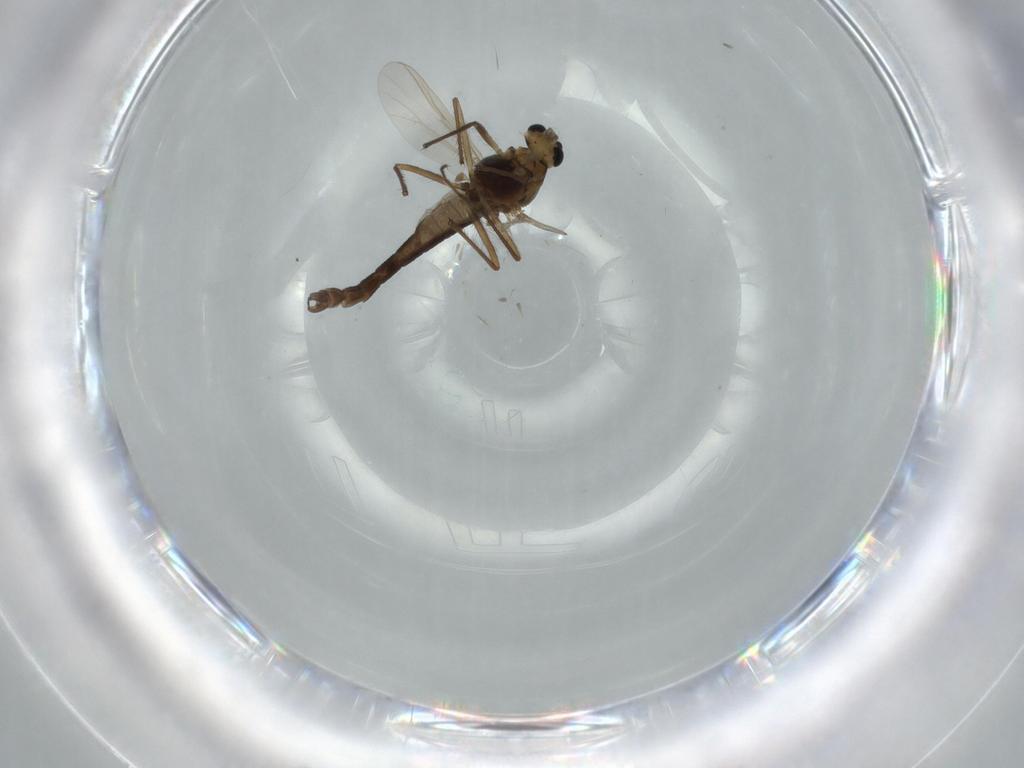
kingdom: Animalia
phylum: Arthropoda
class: Insecta
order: Diptera
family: Chironomidae
